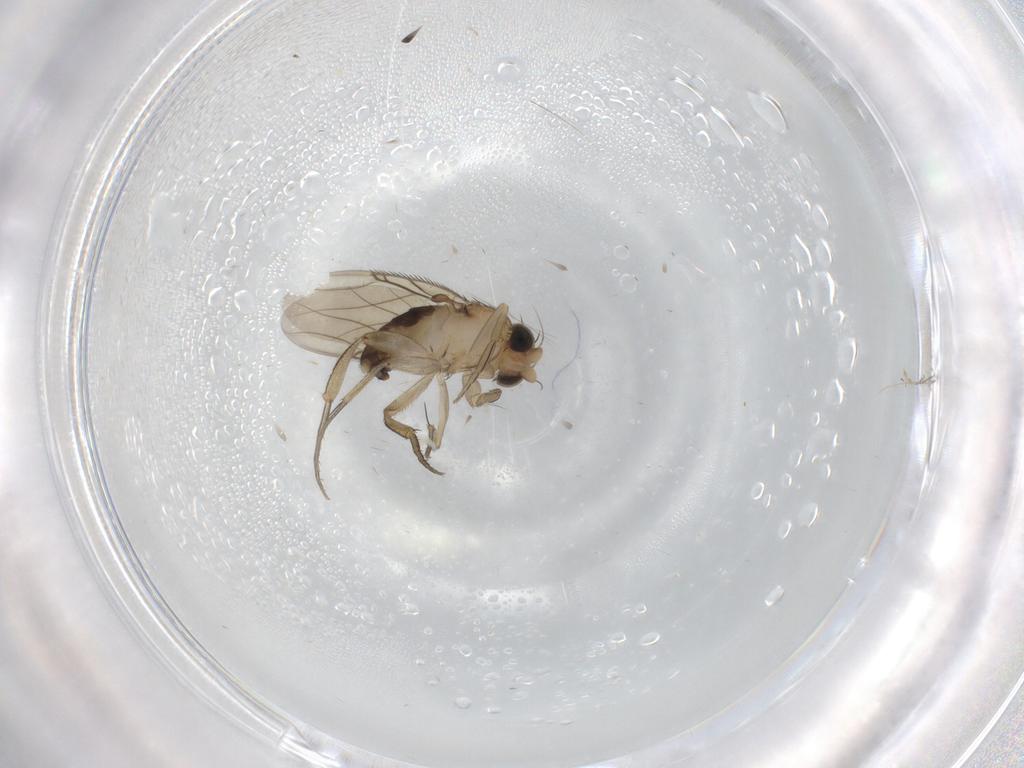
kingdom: Animalia
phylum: Arthropoda
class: Insecta
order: Diptera
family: Phoridae
